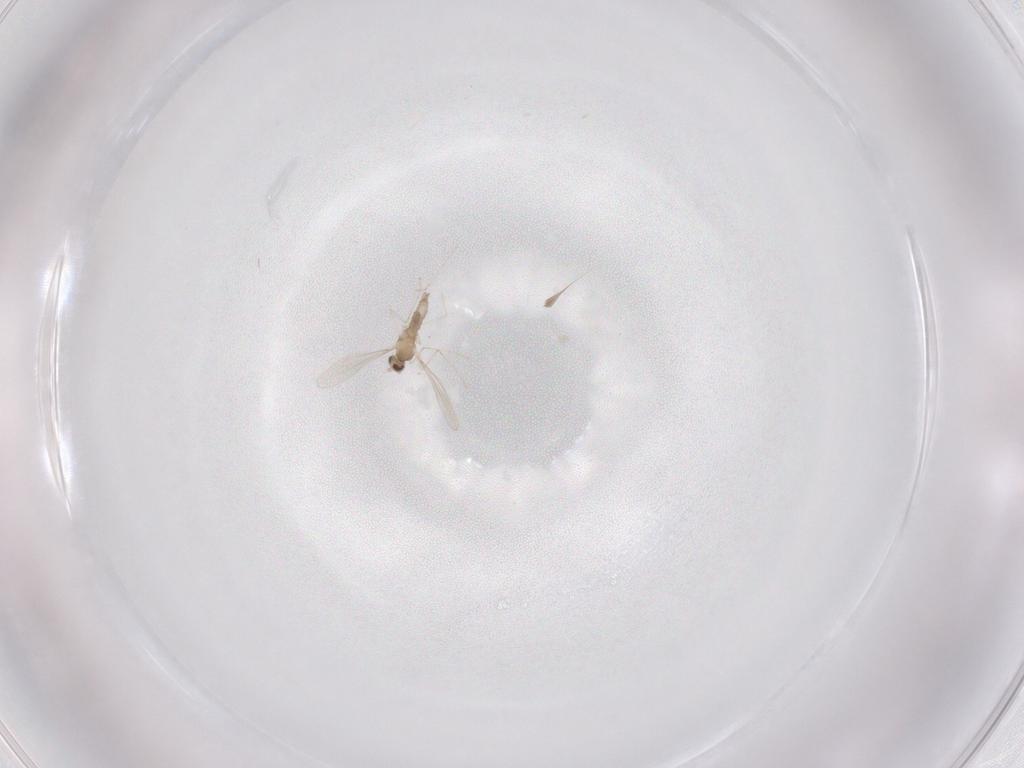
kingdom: Animalia
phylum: Arthropoda
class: Insecta
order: Diptera
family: Cecidomyiidae
